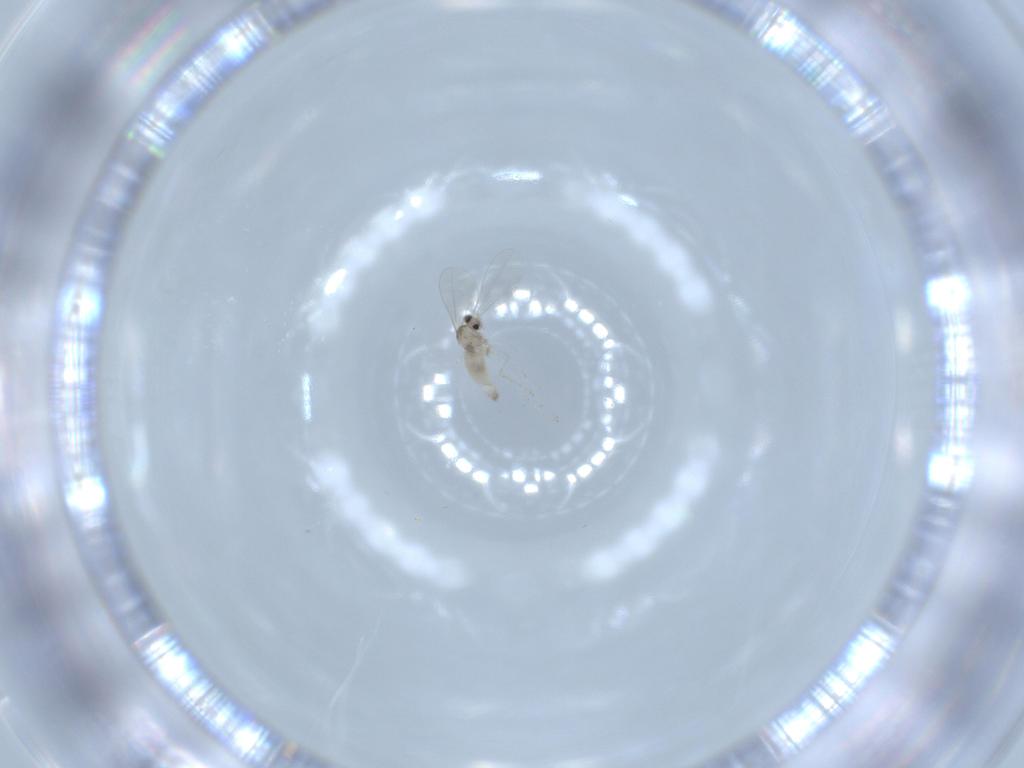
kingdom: Animalia
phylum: Arthropoda
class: Insecta
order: Diptera
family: Cecidomyiidae
